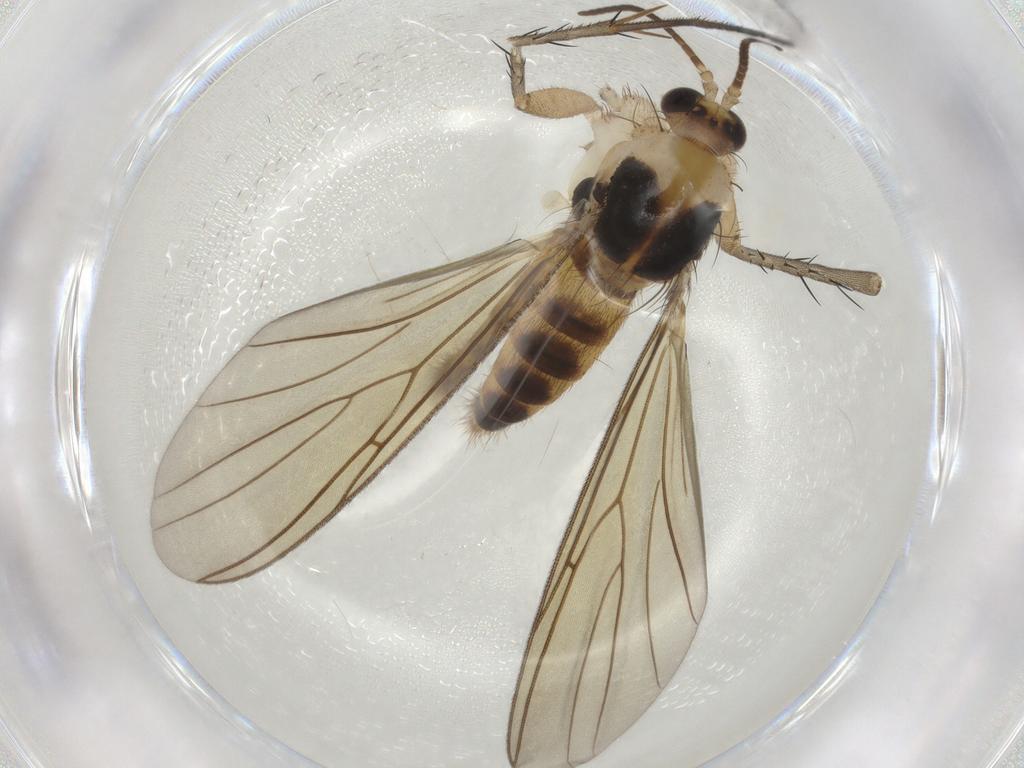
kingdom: Animalia
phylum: Arthropoda
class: Insecta
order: Diptera
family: Mycetophilidae
